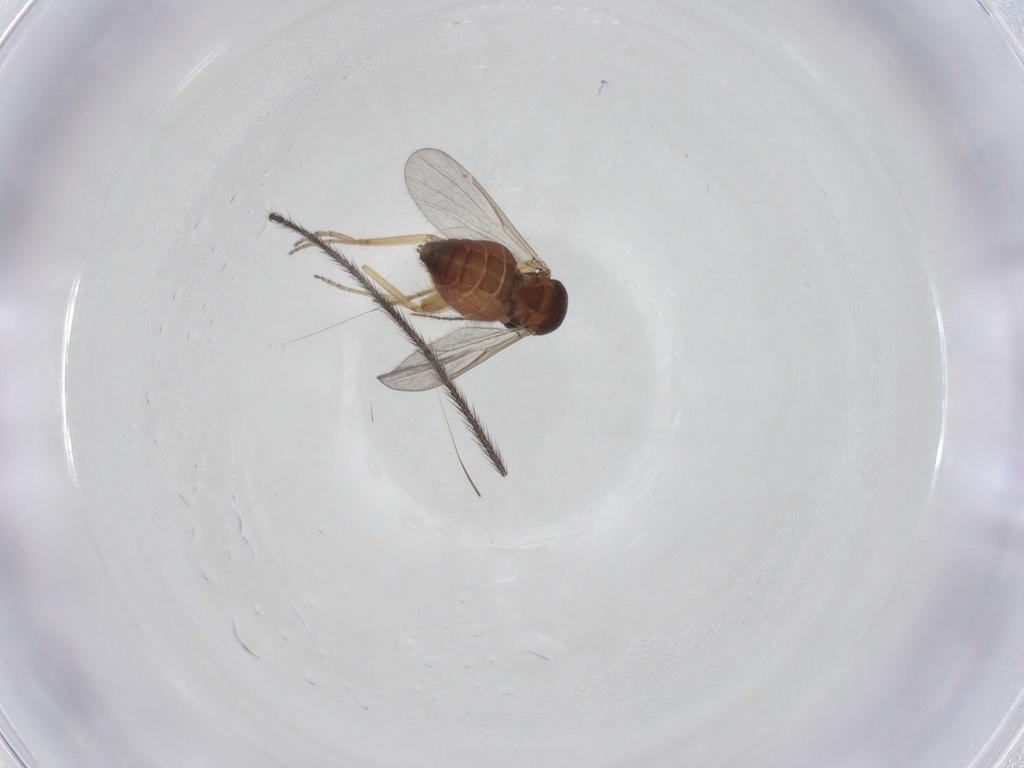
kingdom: Animalia
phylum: Arthropoda
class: Insecta
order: Diptera
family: Ceratopogonidae
